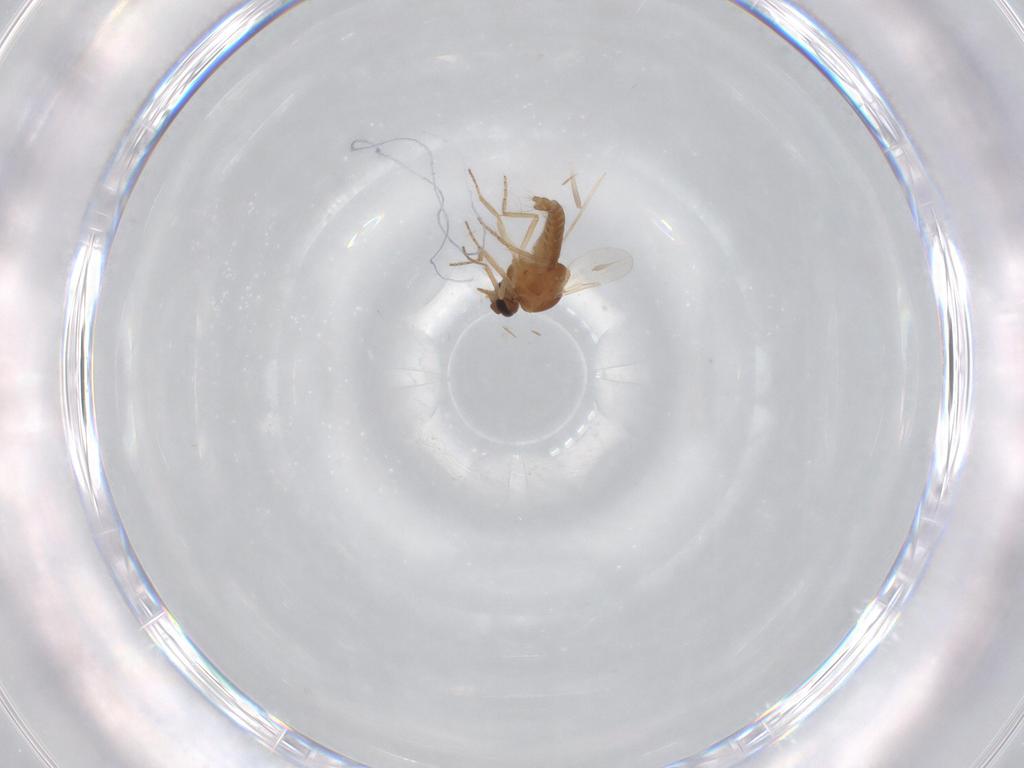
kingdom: Animalia
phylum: Arthropoda
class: Insecta
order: Diptera
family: Ceratopogonidae
